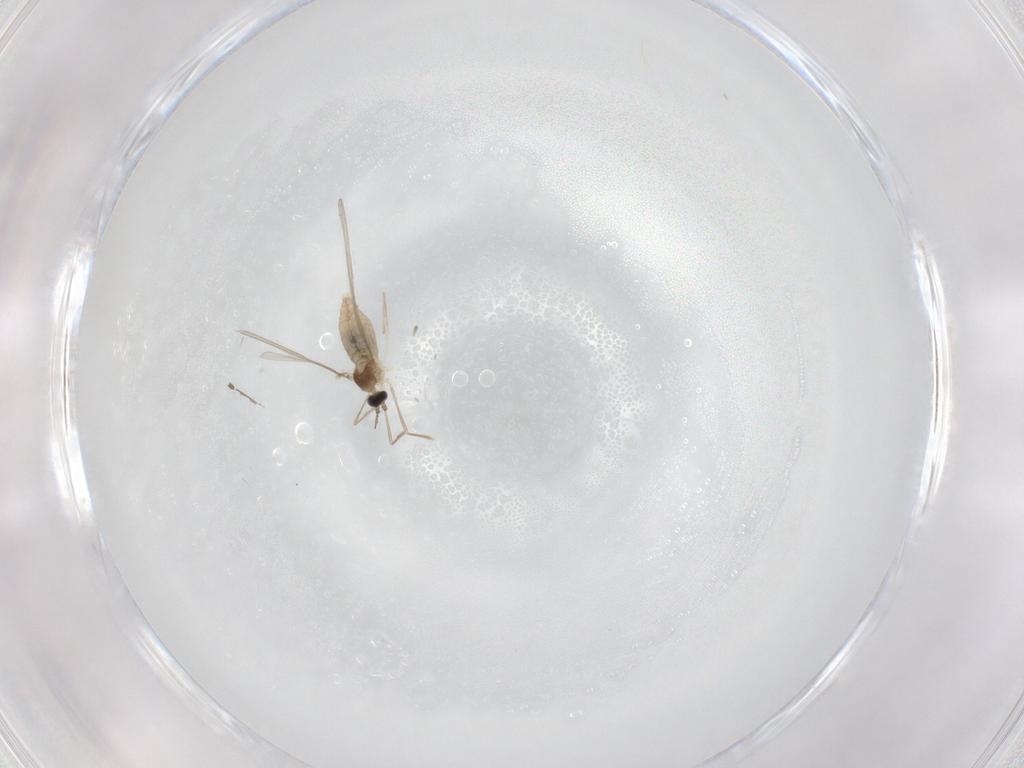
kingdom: Animalia
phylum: Arthropoda
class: Insecta
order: Diptera
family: Cecidomyiidae
